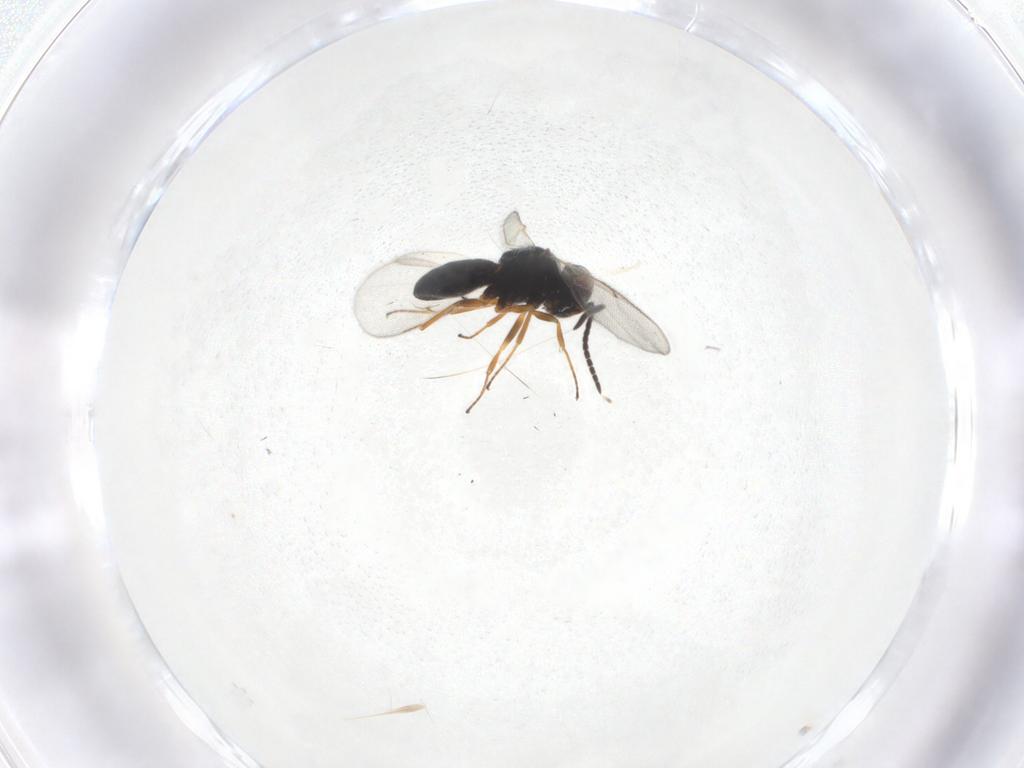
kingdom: Animalia
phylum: Arthropoda
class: Insecta
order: Hymenoptera
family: Scelionidae
